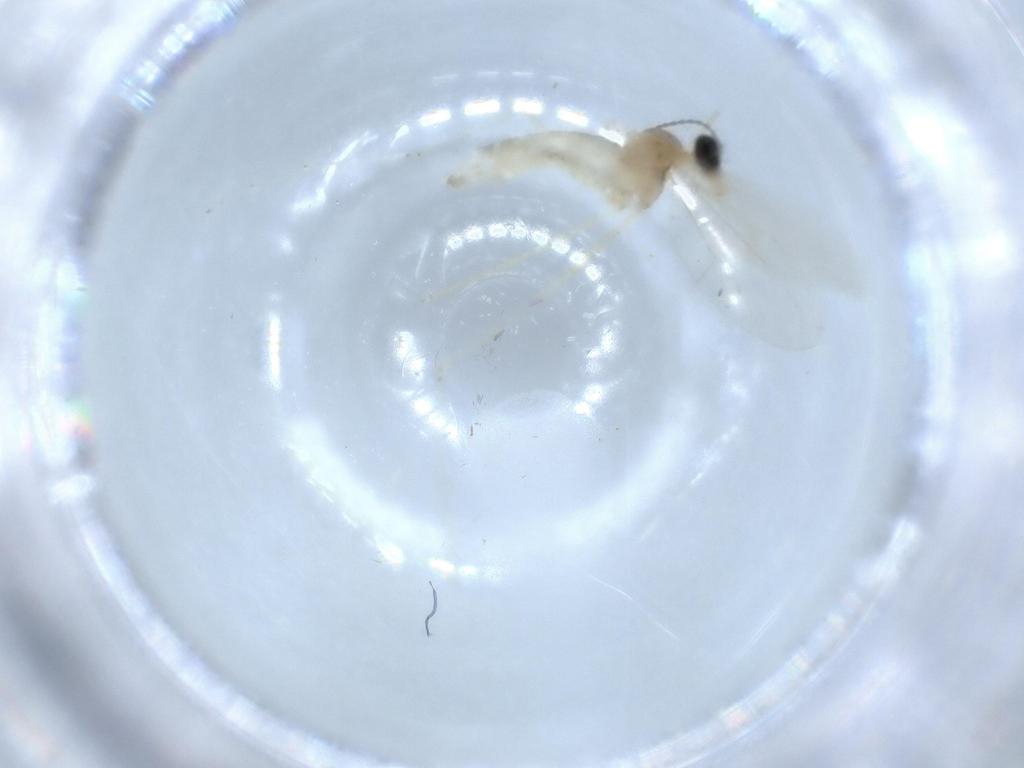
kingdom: Animalia
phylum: Arthropoda
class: Insecta
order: Diptera
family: Cecidomyiidae
